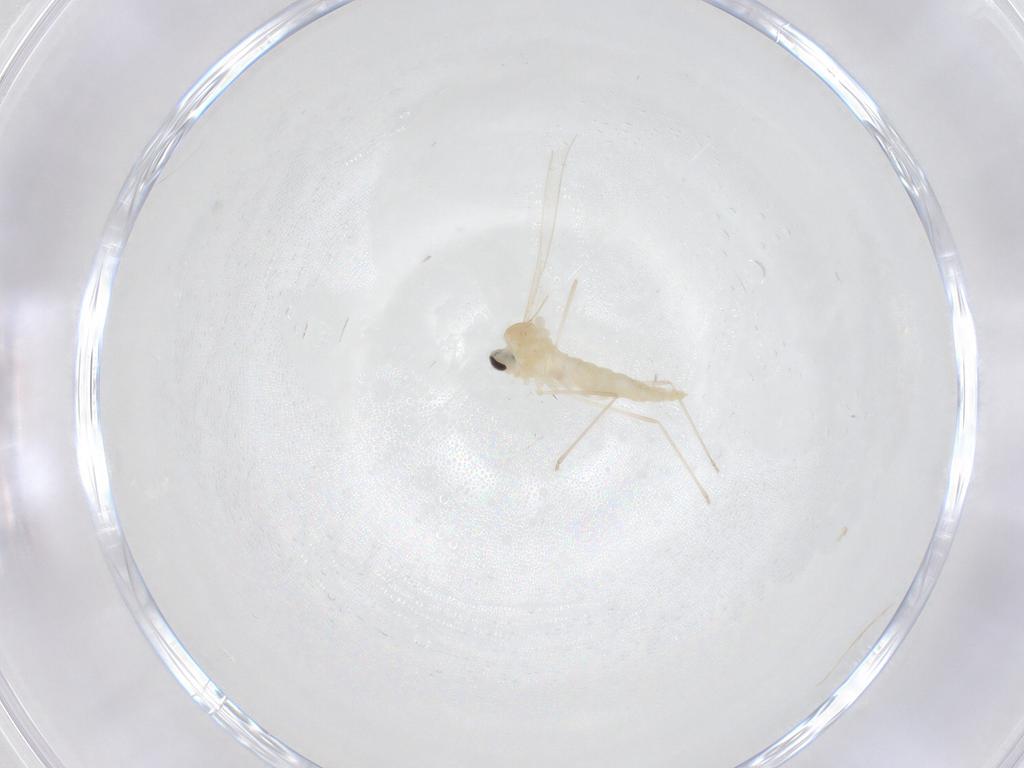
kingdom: Animalia
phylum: Arthropoda
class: Insecta
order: Diptera
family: Cecidomyiidae
